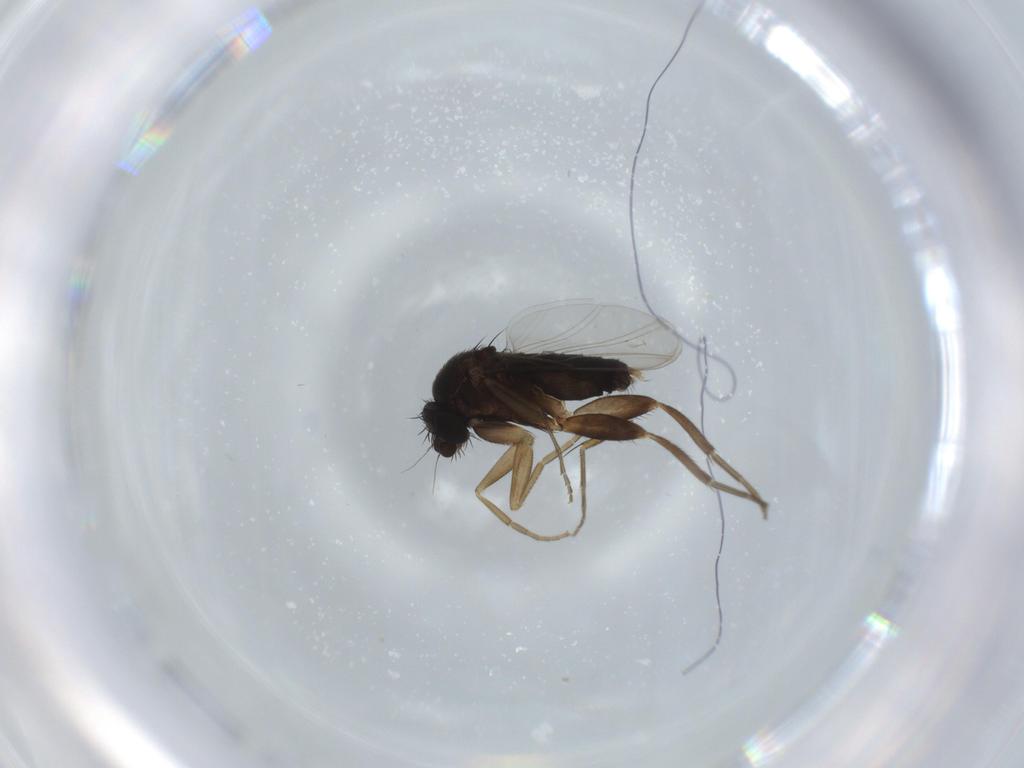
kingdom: Animalia
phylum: Arthropoda
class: Insecta
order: Diptera
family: Phoridae
